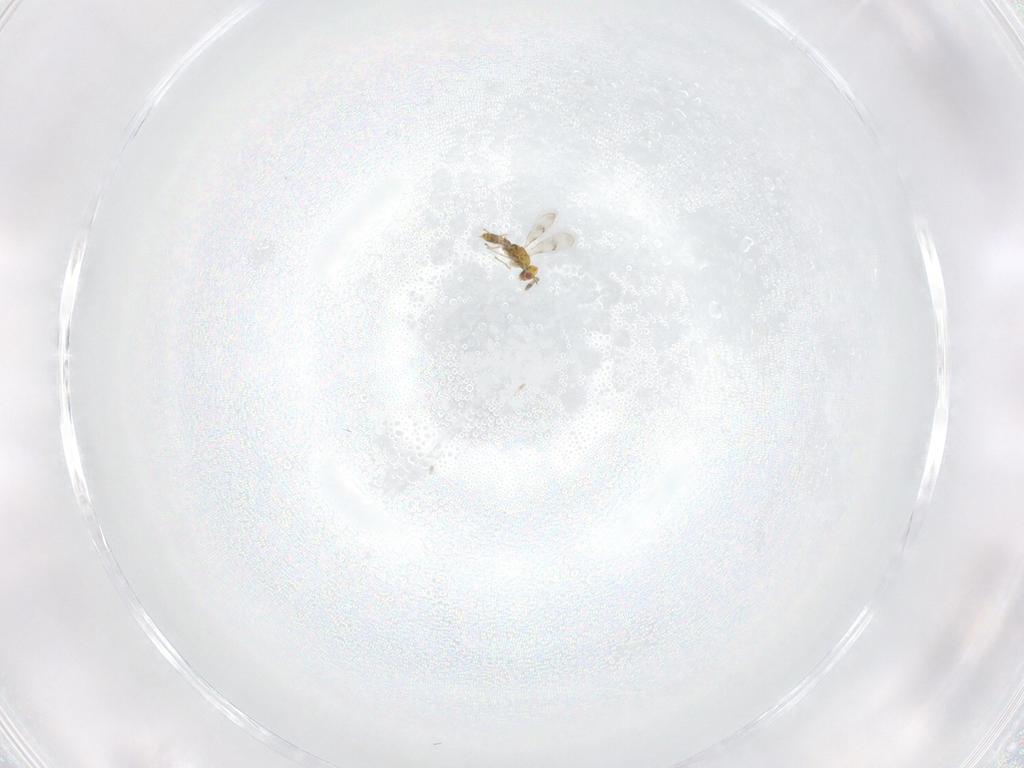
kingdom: Animalia
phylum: Arthropoda
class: Insecta
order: Hymenoptera
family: Eulophidae
